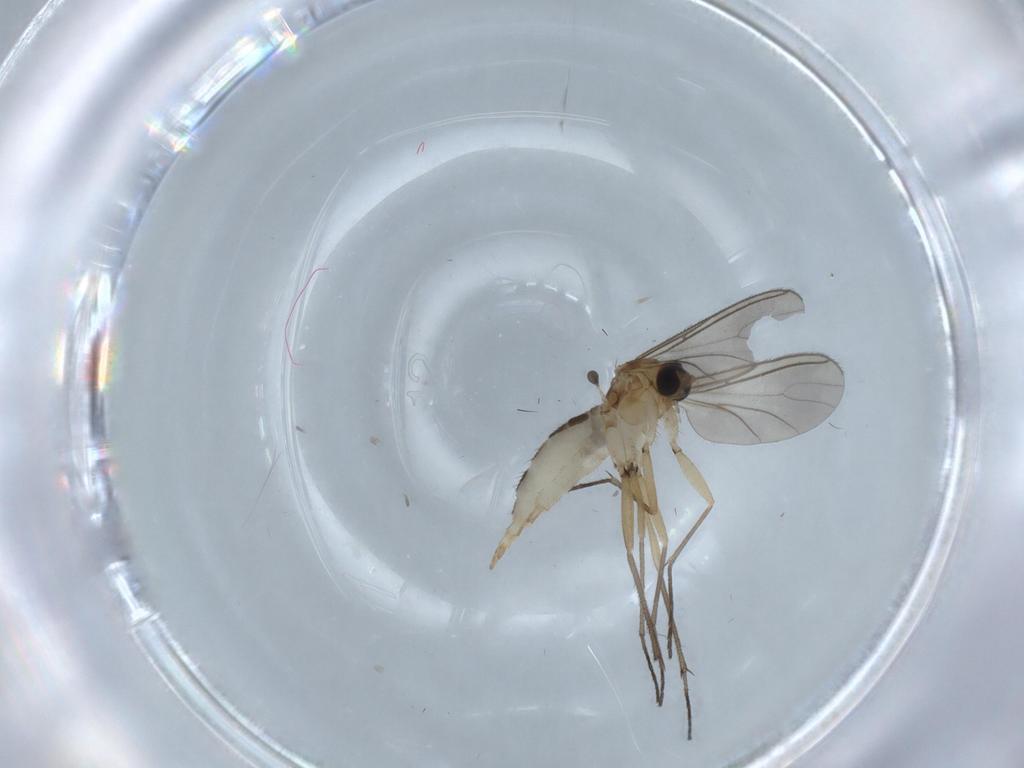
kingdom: Animalia
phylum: Arthropoda
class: Insecta
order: Diptera
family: Sciaridae
